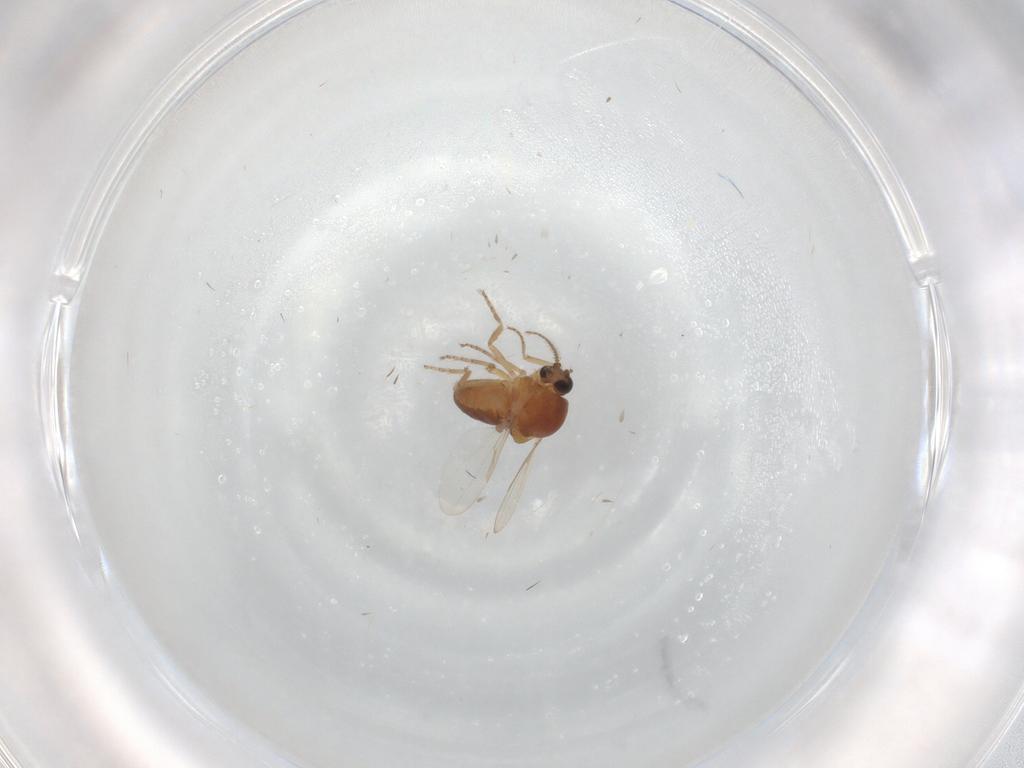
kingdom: Animalia
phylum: Arthropoda
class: Insecta
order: Diptera
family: Ceratopogonidae
